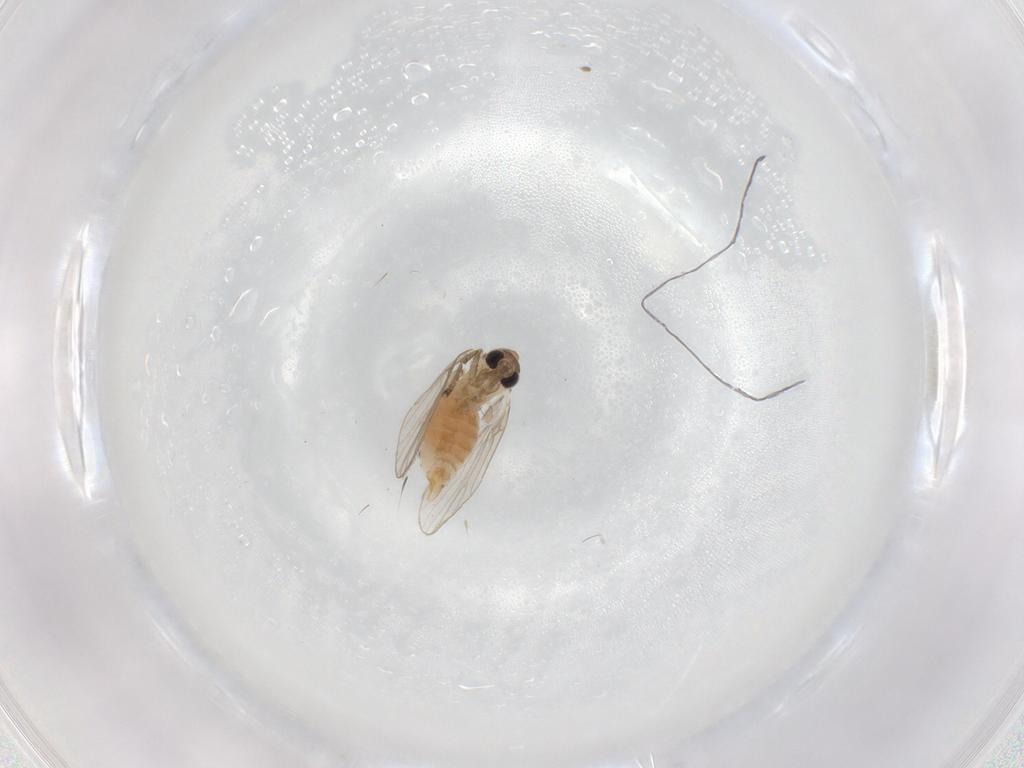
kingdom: Animalia
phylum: Arthropoda
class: Insecta
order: Diptera
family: Psychodidae
